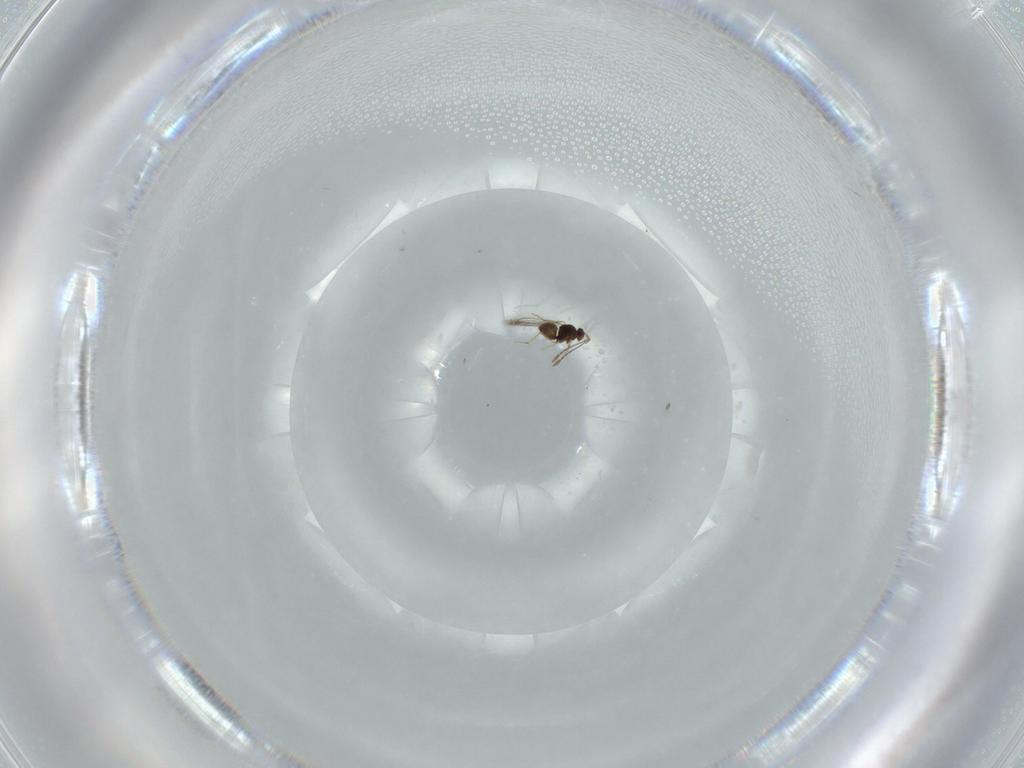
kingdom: Animalia
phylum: Arthropoda
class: Insecta
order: Hymenoptera
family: Mymaridae
